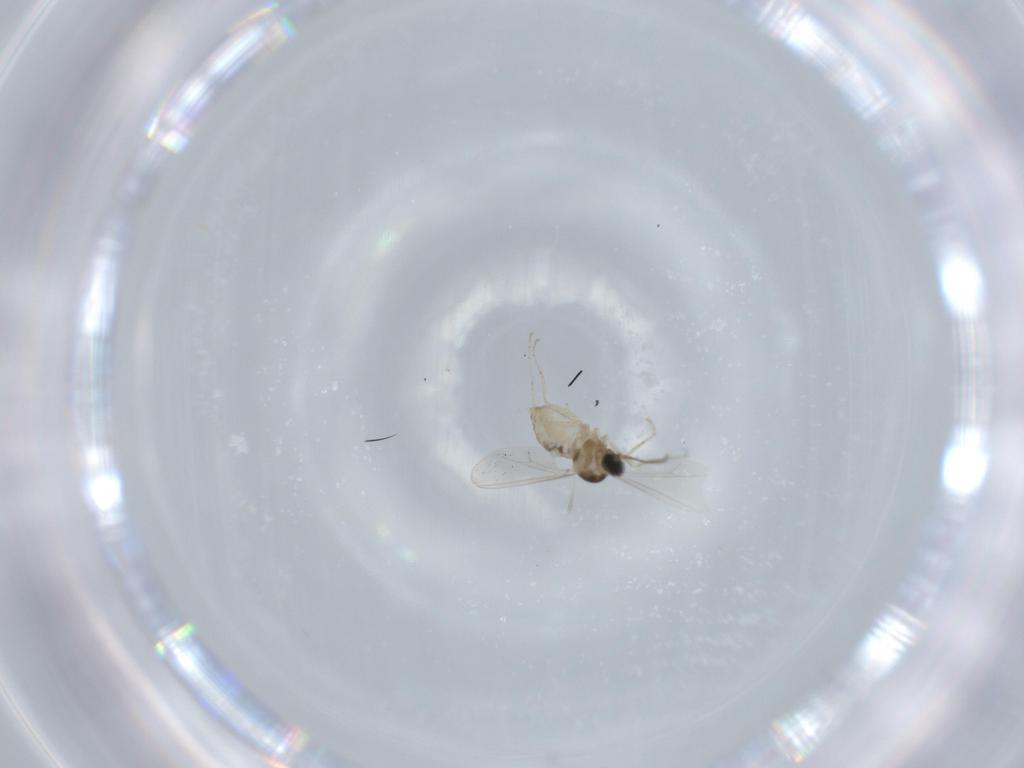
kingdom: Animalia
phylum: Arthropoda
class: Insecta
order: Diptera
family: Cecidomyiidae
